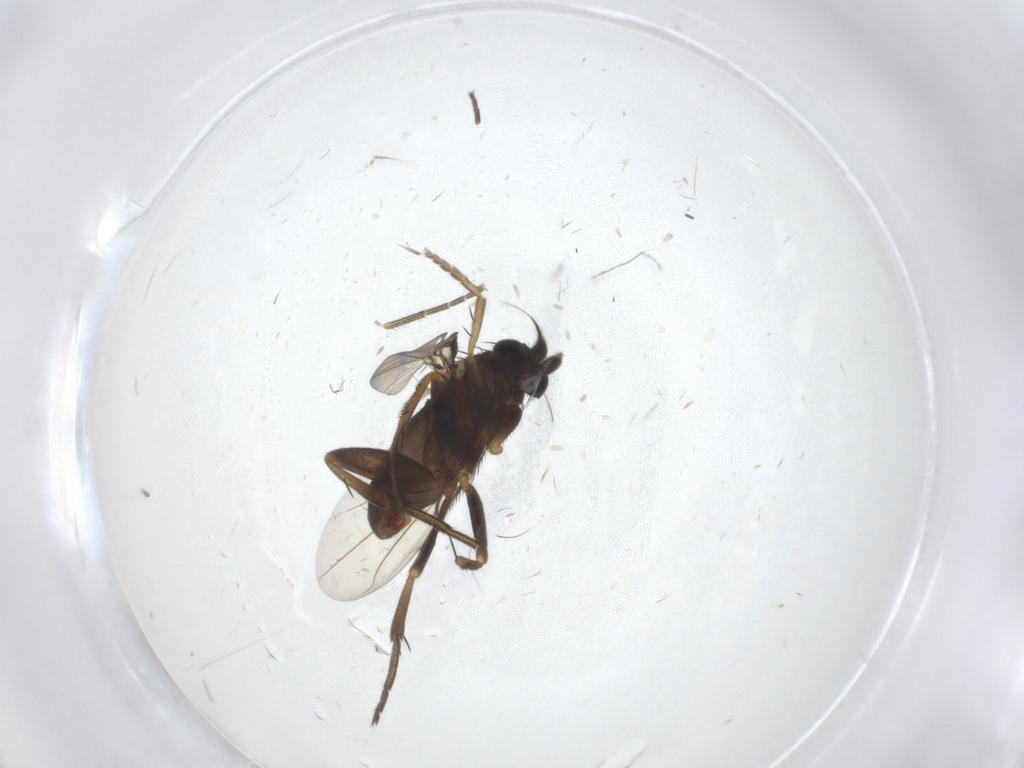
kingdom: Animalia
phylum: Arthropoda
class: Insecta
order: Diptera
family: Phoridae
